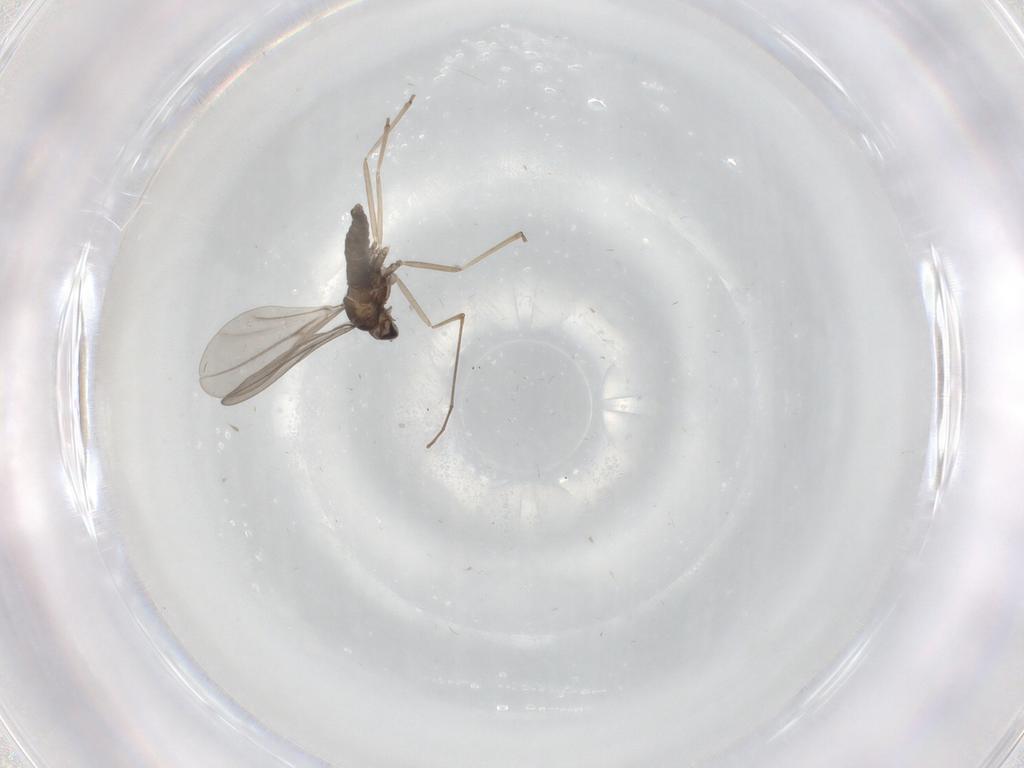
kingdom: Animalia
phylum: Arthropoda
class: Insecta
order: Diptera
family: Cecidomyiidae
